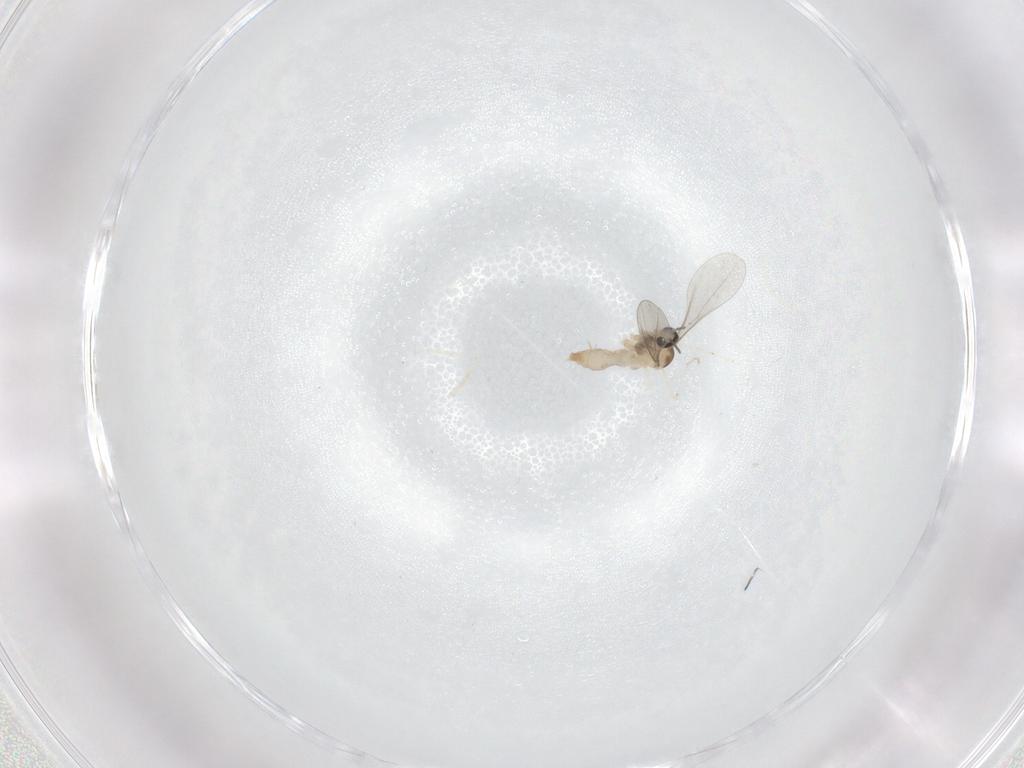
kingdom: Animalia
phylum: Arthropoda
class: Insecta
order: Diptera
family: Cecidomyiidae
